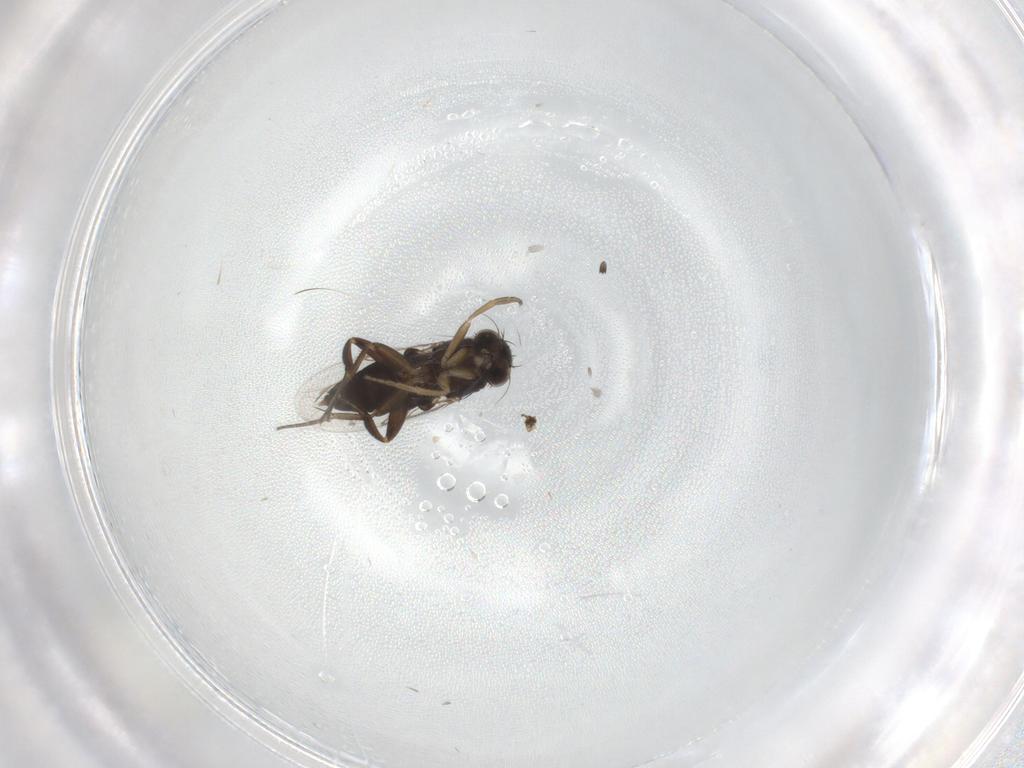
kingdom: Animalia
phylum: Arthropoda
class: Insecta
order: Diptera
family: Phoridae
